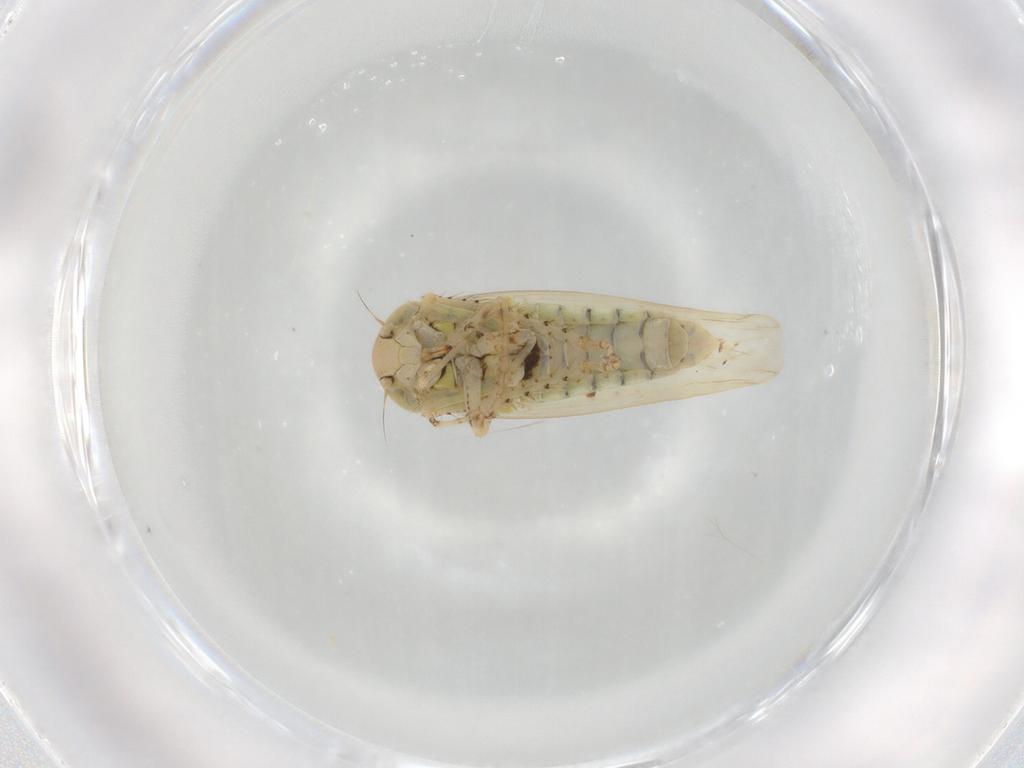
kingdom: Animalia
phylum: Arthropoda
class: Insecta
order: Hemiptera
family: Cicadellidae
